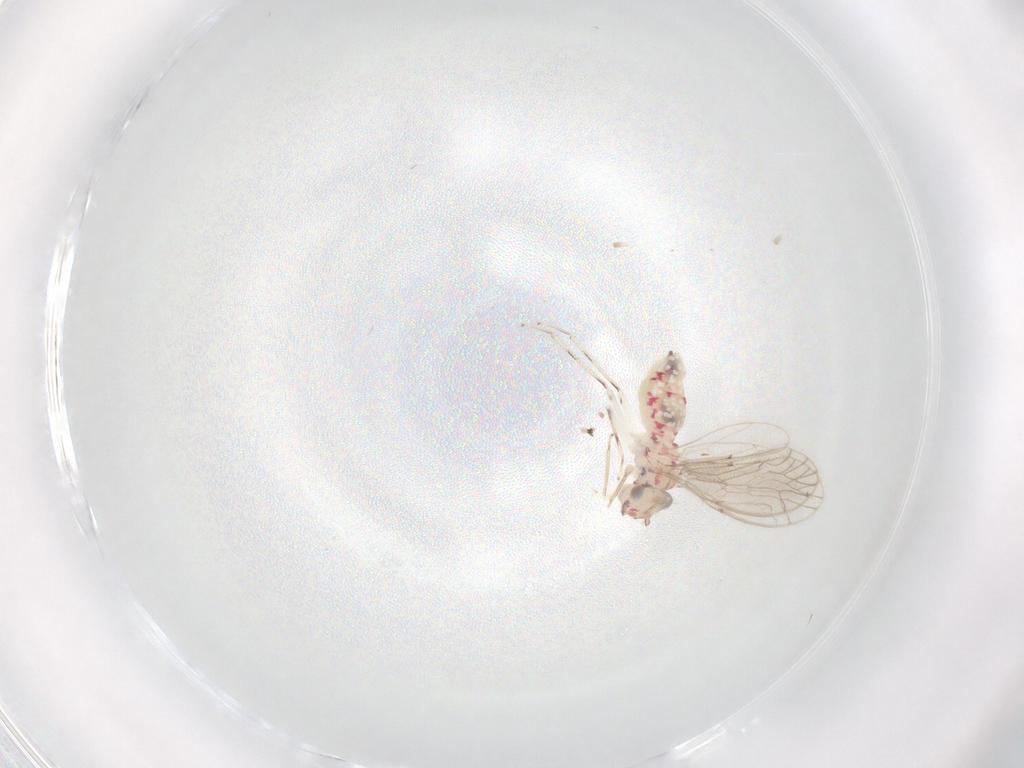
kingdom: Animalia
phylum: Arthropoda
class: Insecta
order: Psocodea
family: Caeciliusidae
